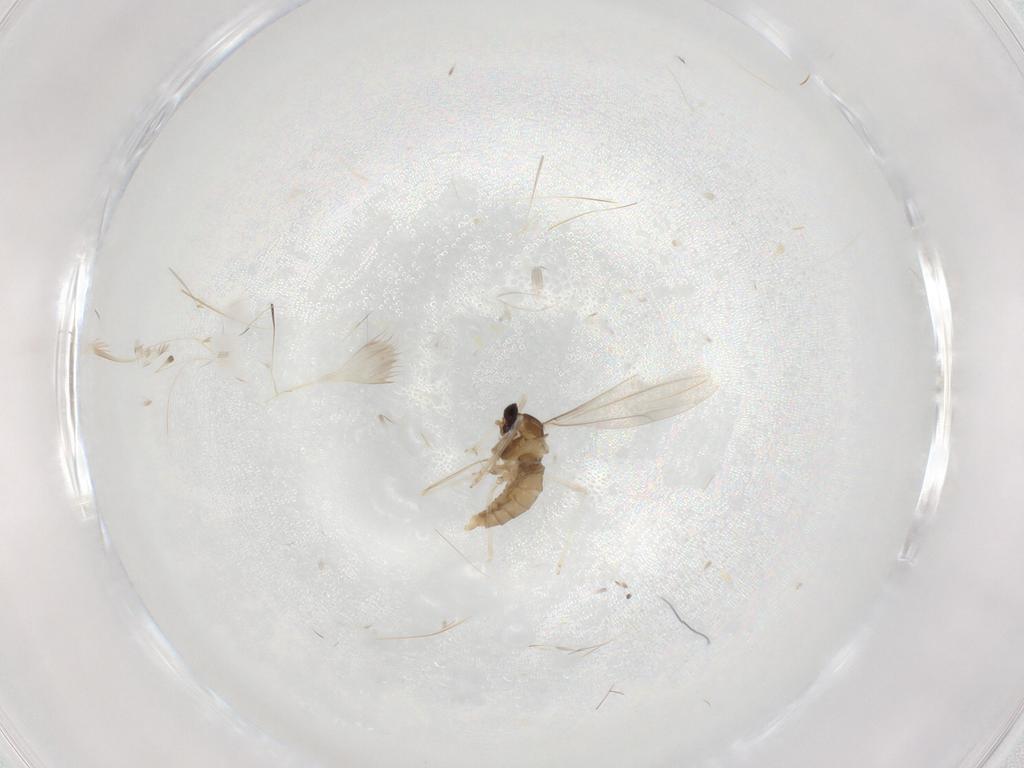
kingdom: Animalia
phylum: Arthropoda
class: Insecta
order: Diptera
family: Cecidomyiidae
